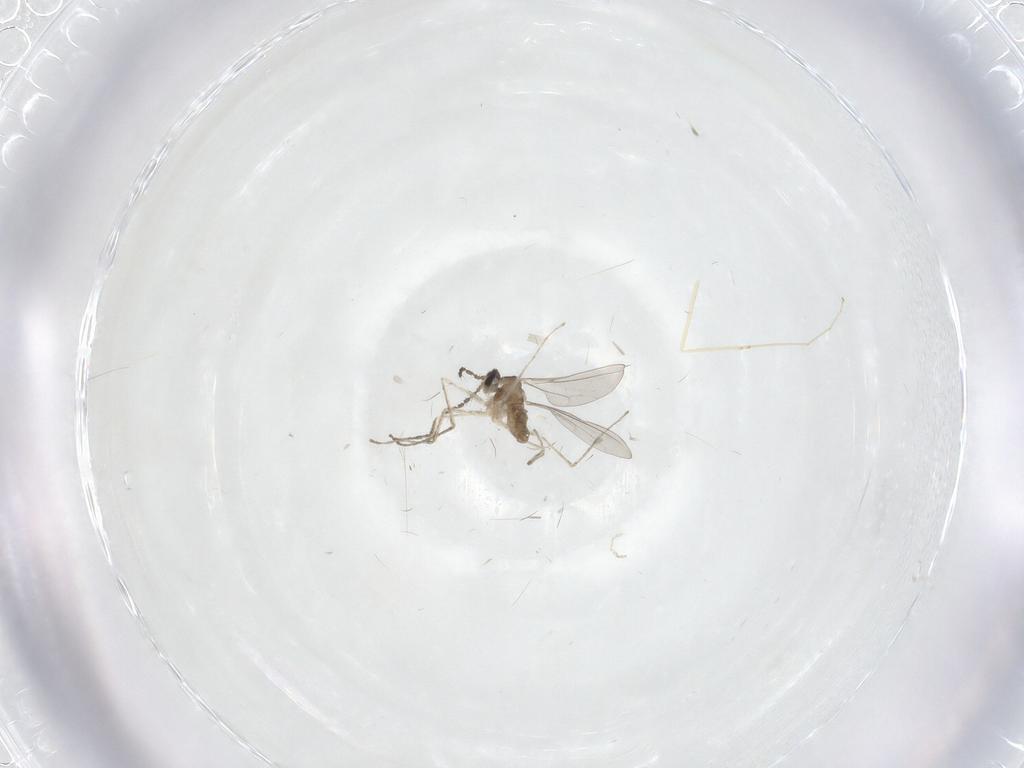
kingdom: Animalia
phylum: Arthropoda
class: Insecta
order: Diptera
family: Cecidomyiidae
